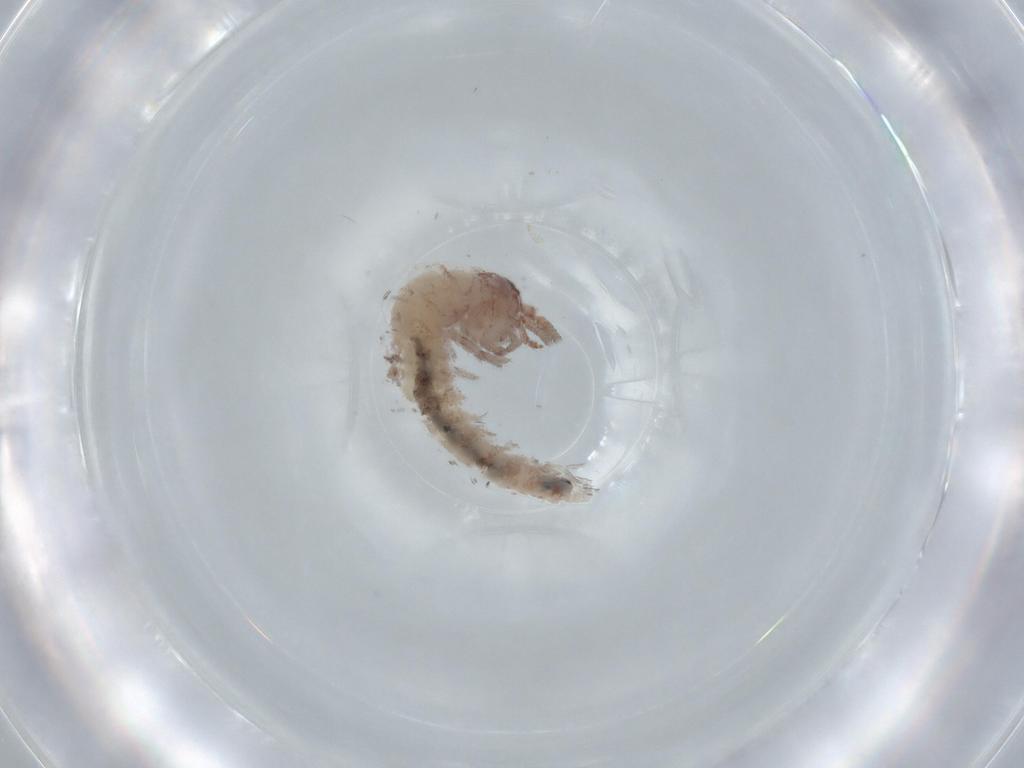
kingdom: Animalia
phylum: Arthropoda
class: Insecta
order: Archaeognatha
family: Machilidae
